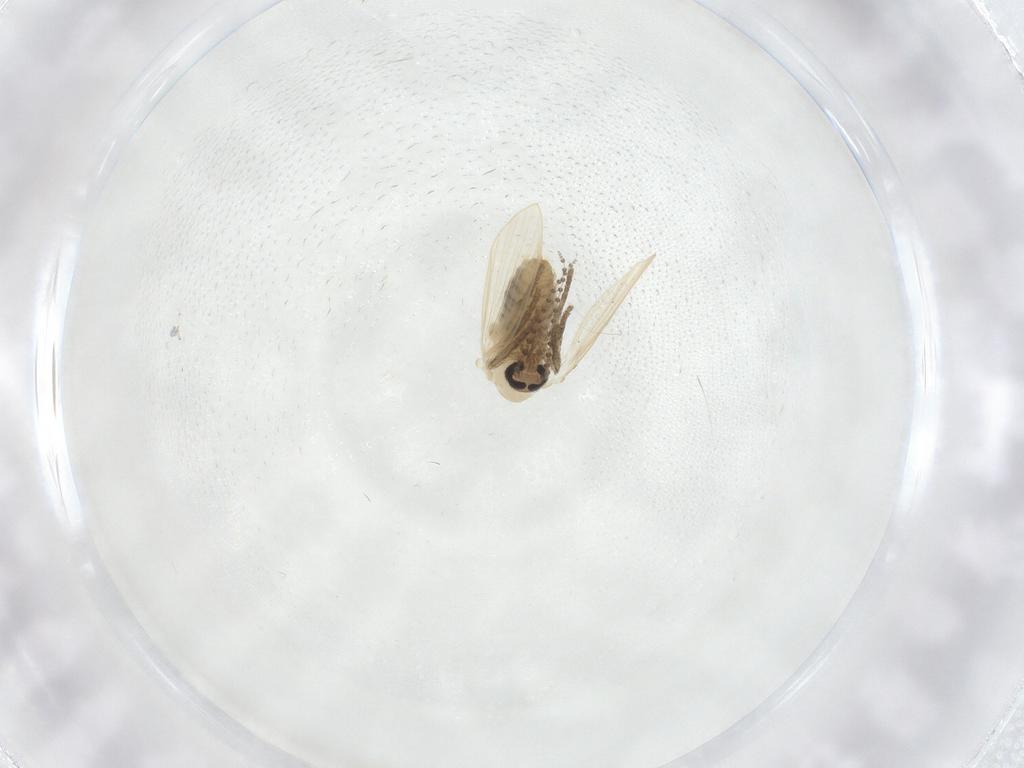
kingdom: Animalia
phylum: Arthropoda
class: Insecta
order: Diptera
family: Psychodidae
